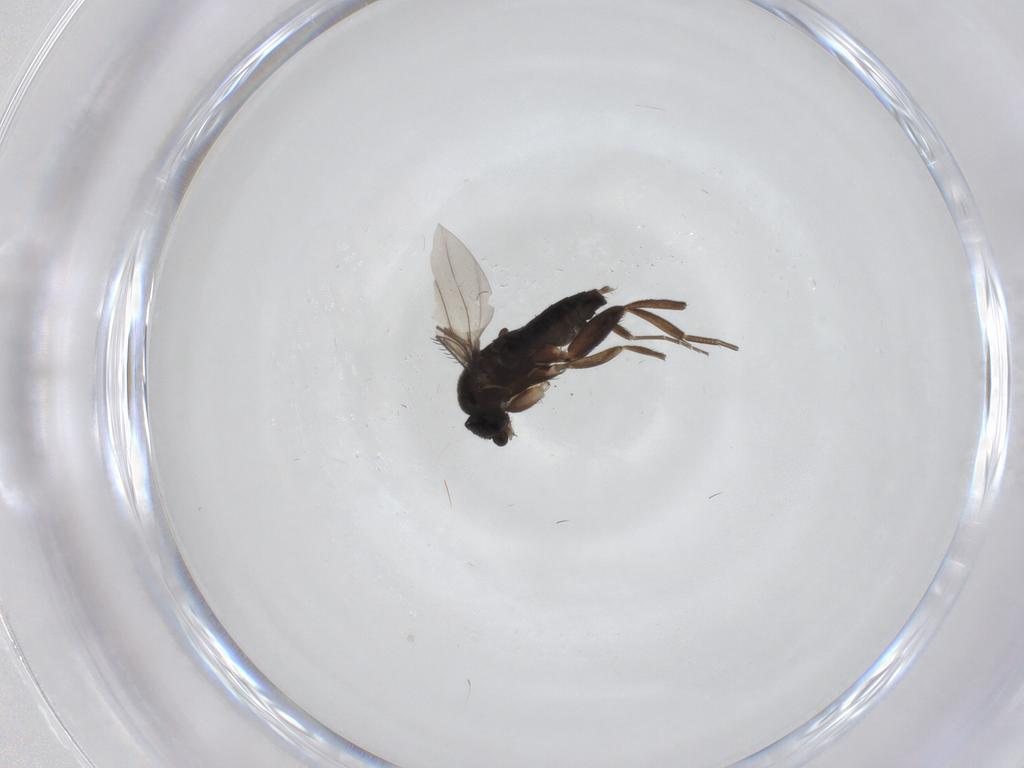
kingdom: Animalia
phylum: Arthropoda
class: Insecta
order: Diptera
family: Phoridae
